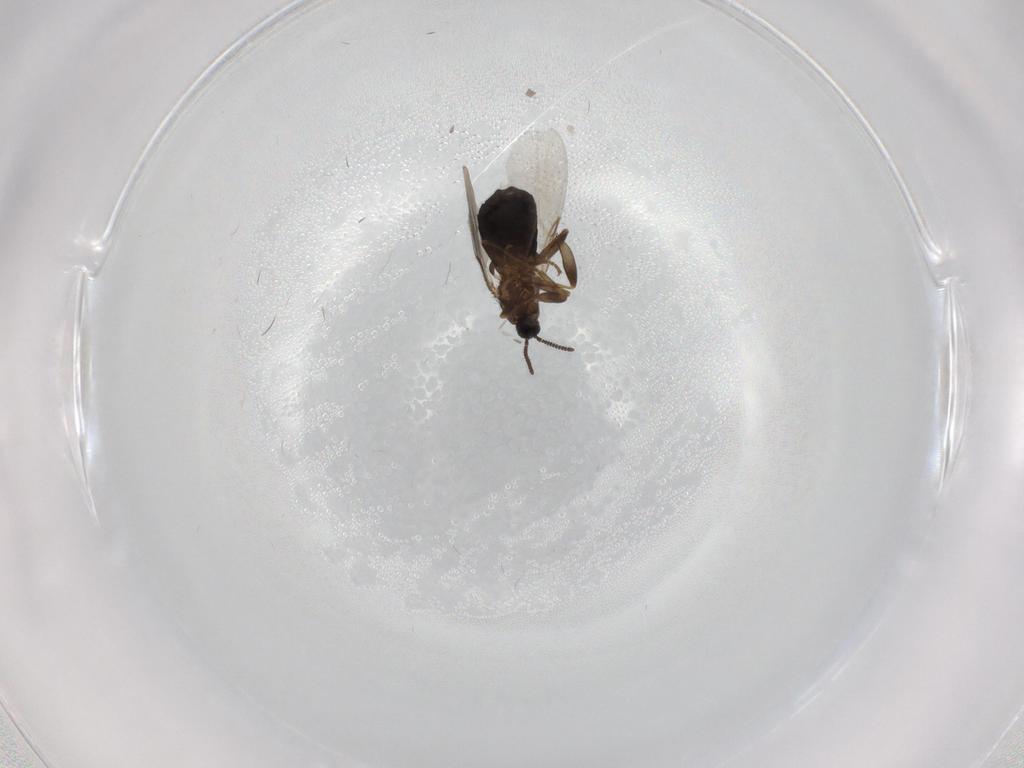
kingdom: Animalia
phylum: Arthropoda
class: Insecta
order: Diptera
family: Scatopsidae
